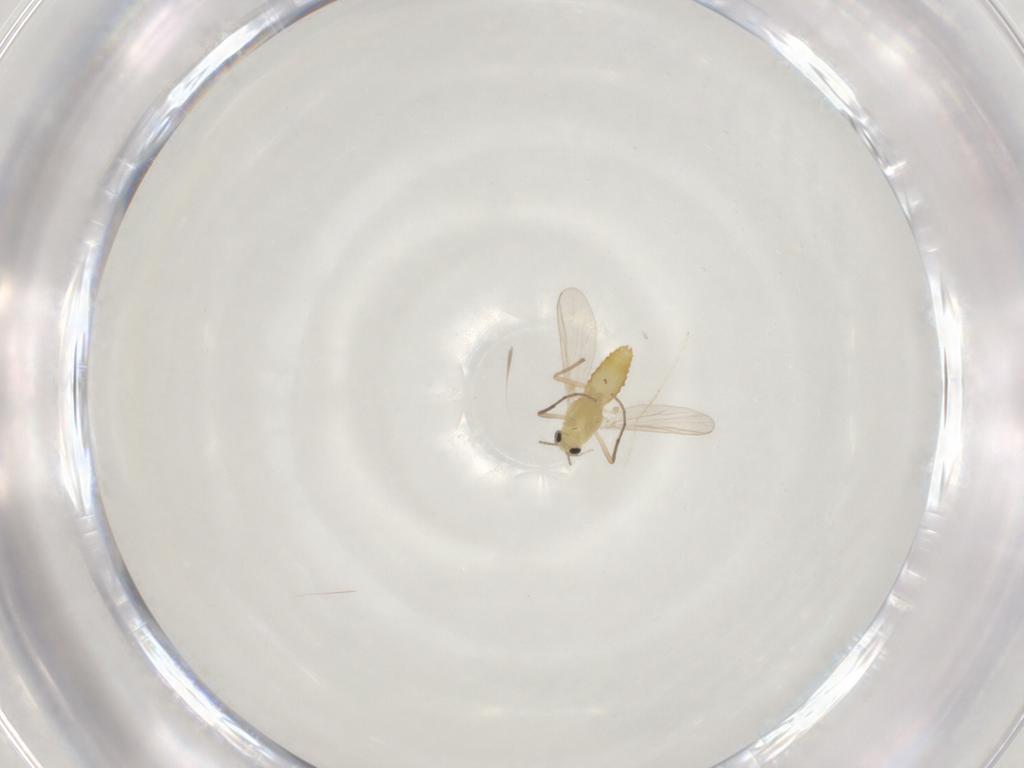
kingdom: Animalia
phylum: Arthropoda
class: Insecta
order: Diptera
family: Chironomidae
